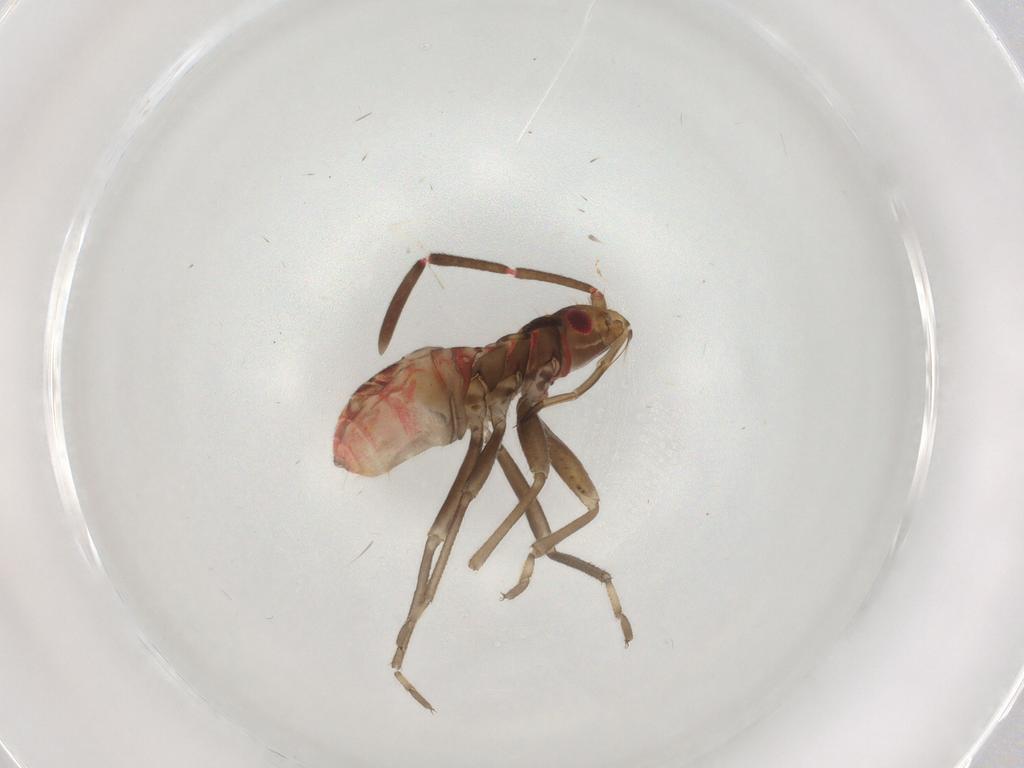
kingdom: Animalia
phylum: Arthropoda
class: Insecta
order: Hemiptera
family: Rhyparochromidae
